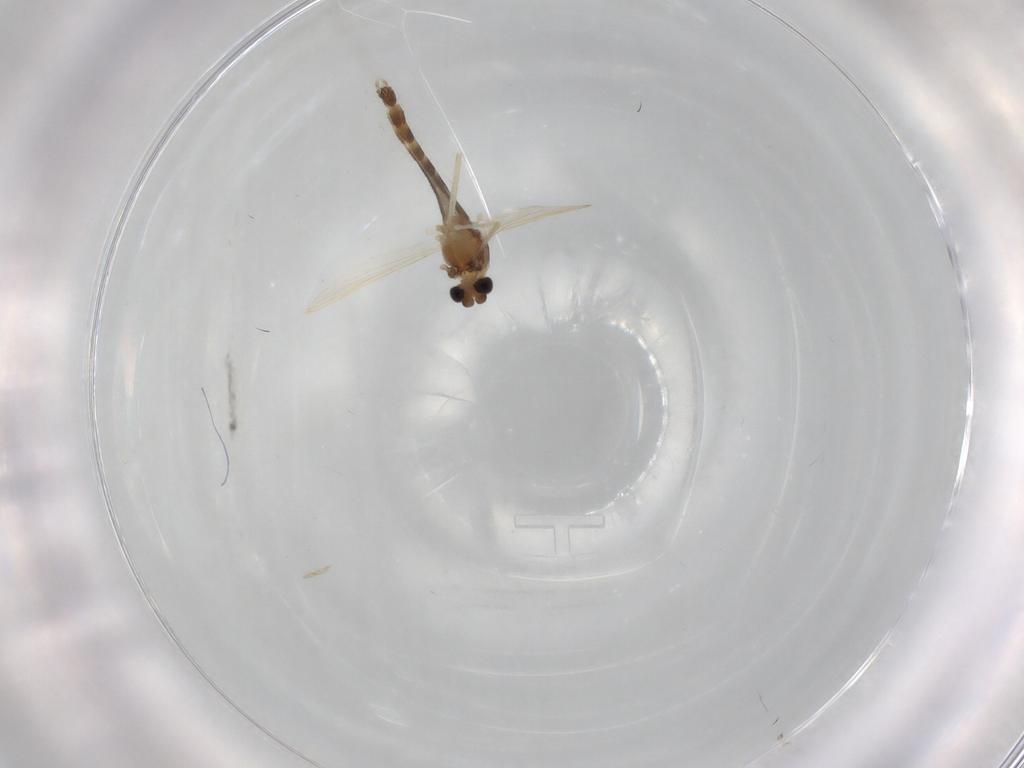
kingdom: Animalia
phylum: Arthropoda
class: Insecta
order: Diptera
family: Chironomidae
